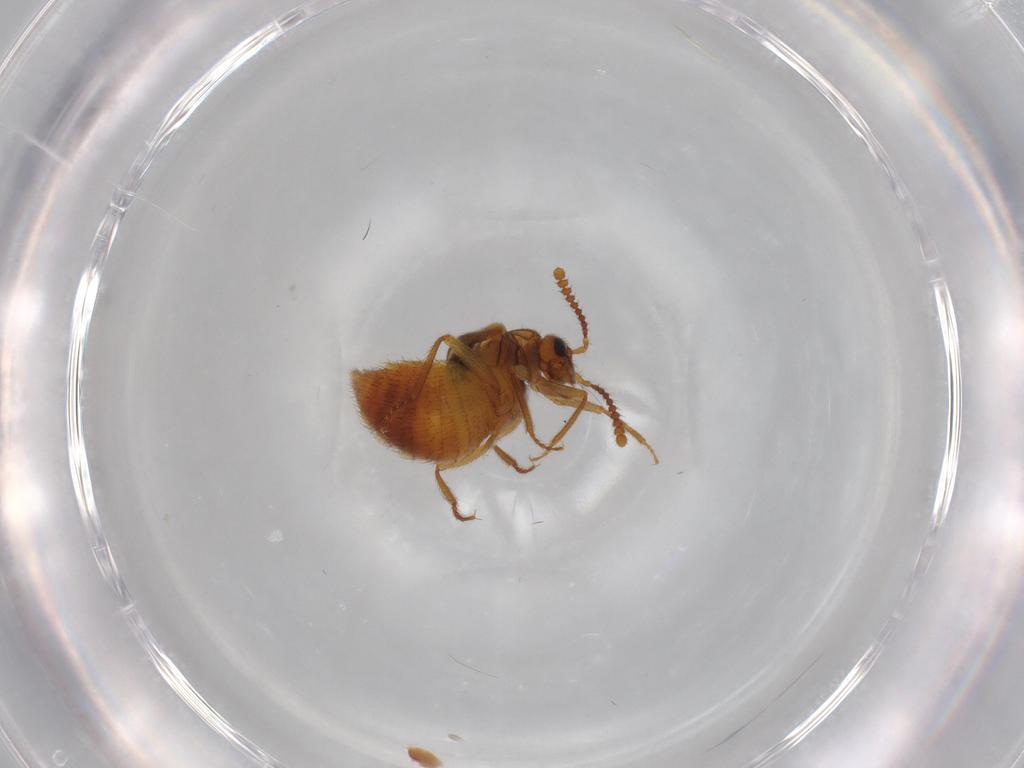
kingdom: Animalia
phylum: Arthropoda
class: Insecta
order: Coleoptera
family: Staphylinidae
